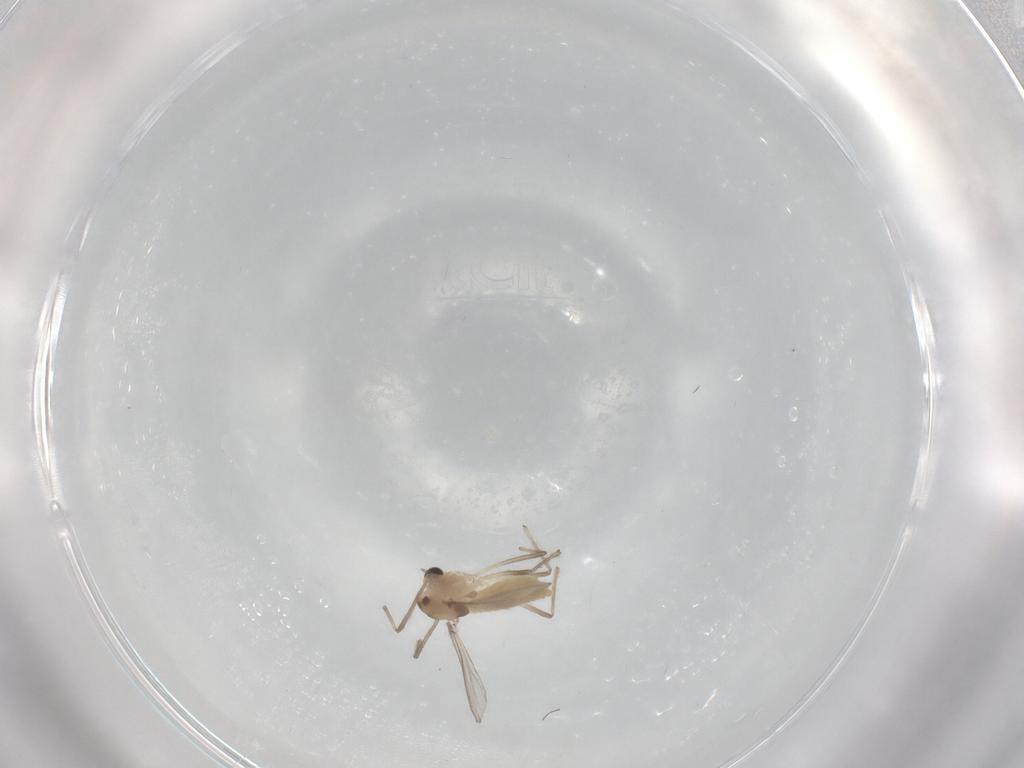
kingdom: Animalia
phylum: Arthropoda
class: Insecta
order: Diptera
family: Chironomidae
